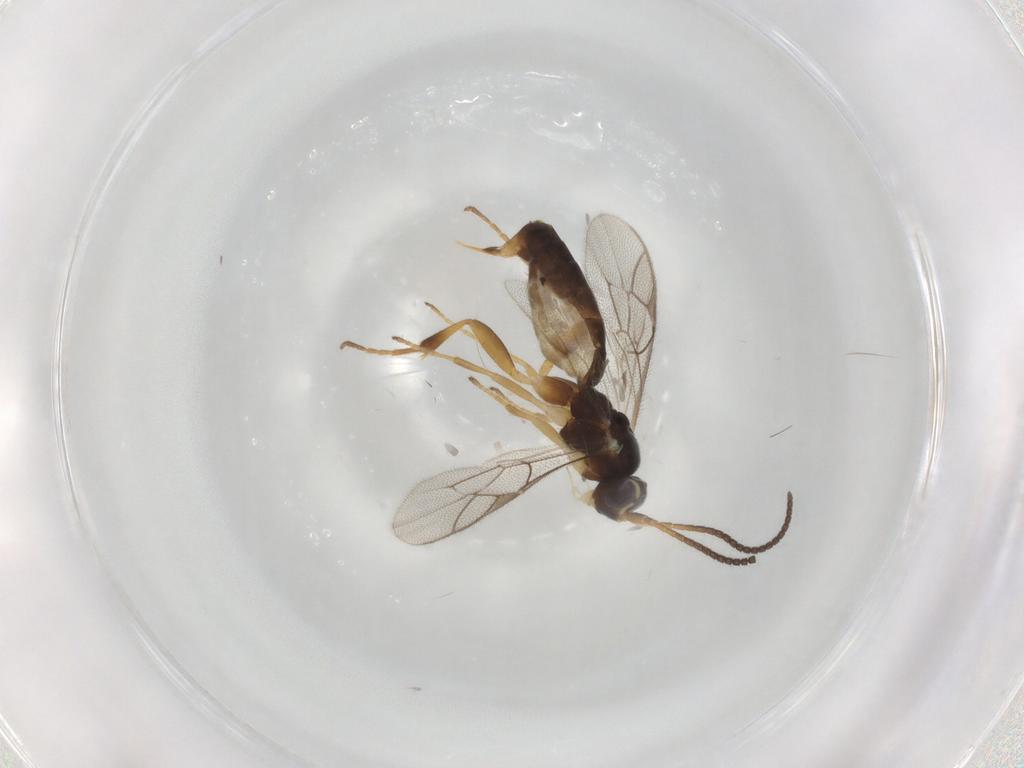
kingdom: Animalia
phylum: Arthropoda
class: Insecta
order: Hymenoptera
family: Ichneumonidae
